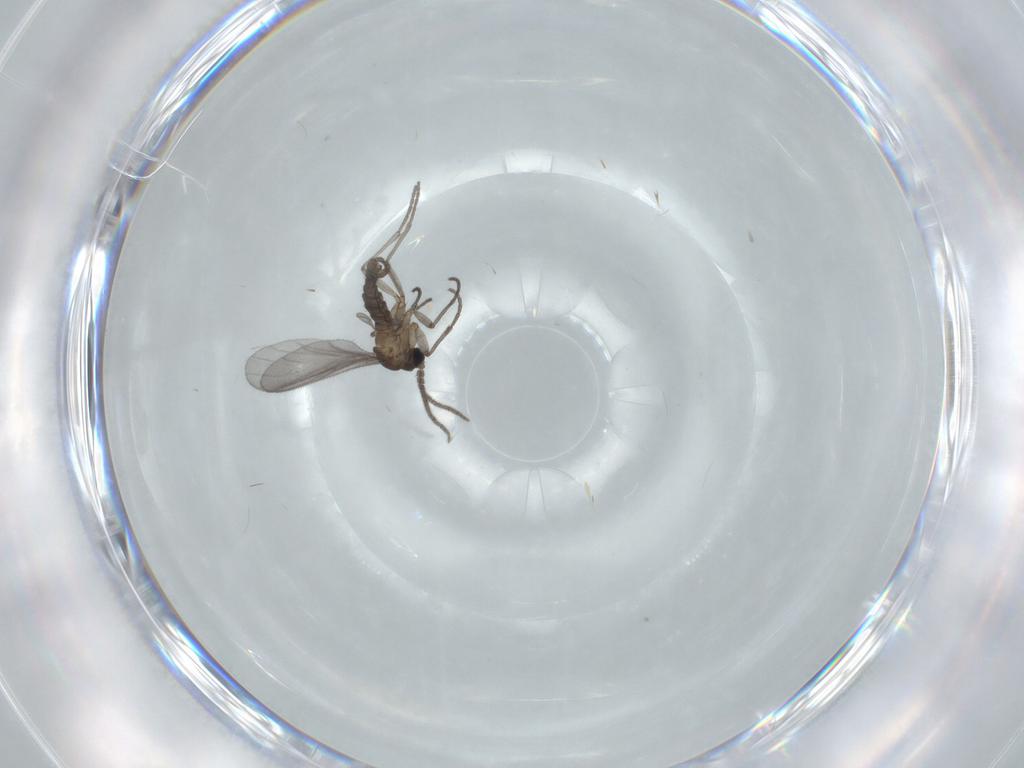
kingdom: Animalia
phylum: Arthropoda
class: Insecta
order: Diptera
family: Sciaridae
